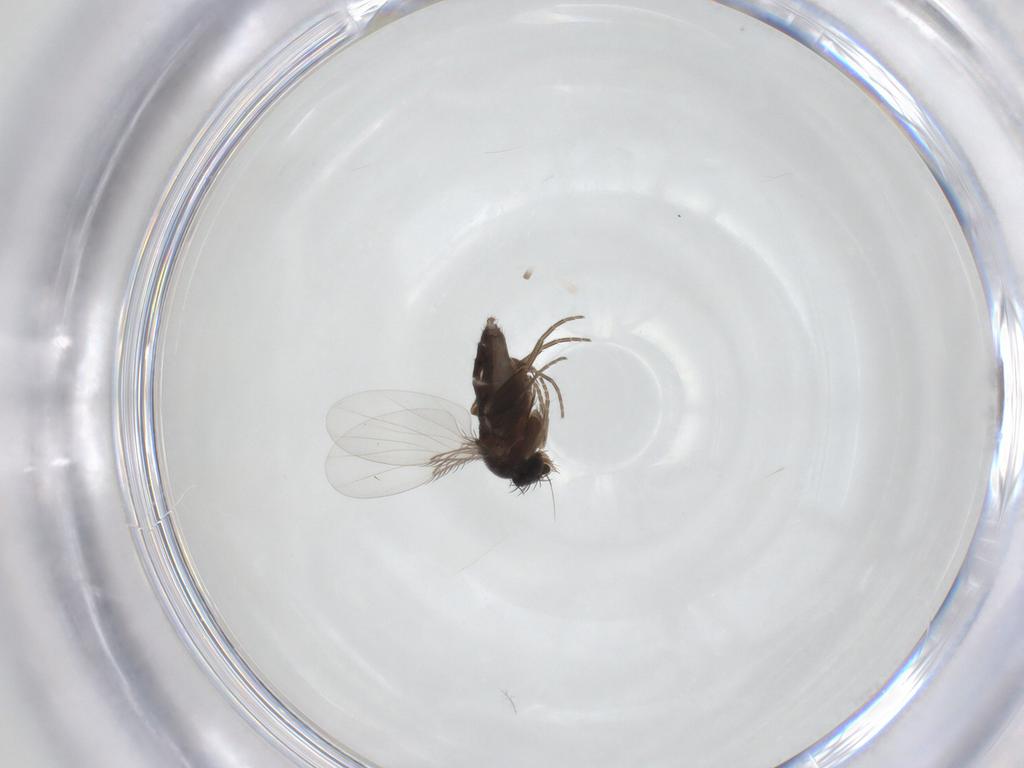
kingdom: Animalia
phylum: Arthropoda
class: Insecta
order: Diptera
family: Phoridae
